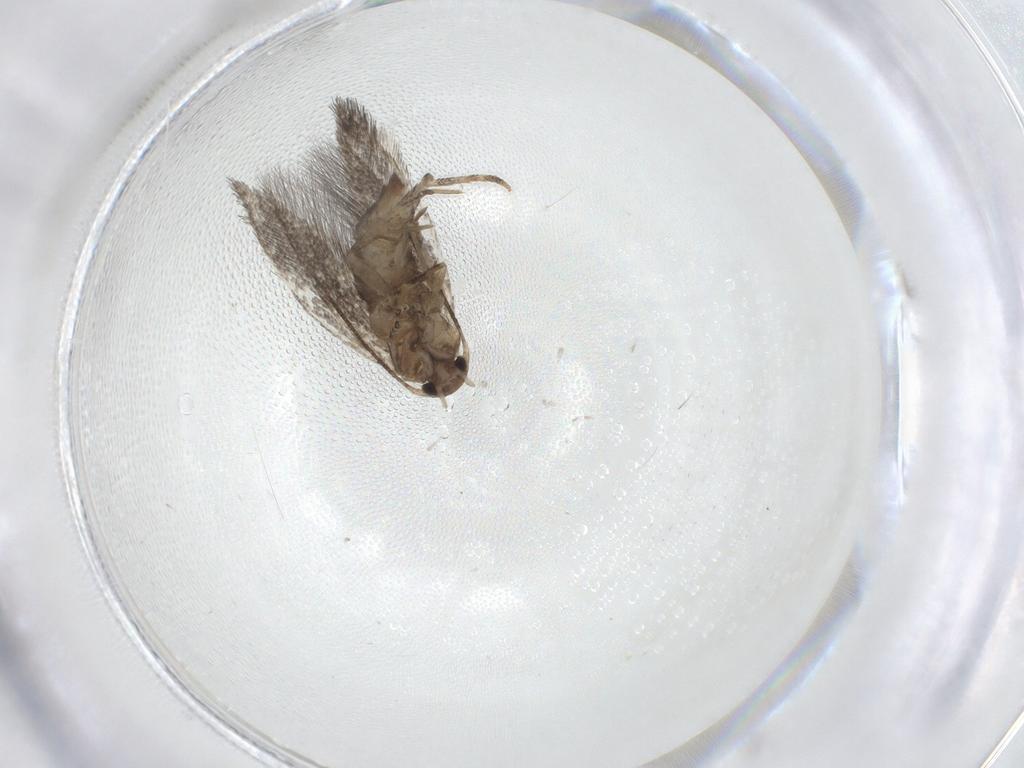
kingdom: Animalia
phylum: Arthropoda
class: Insecta
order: Lepidoptera
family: Elachistidae
